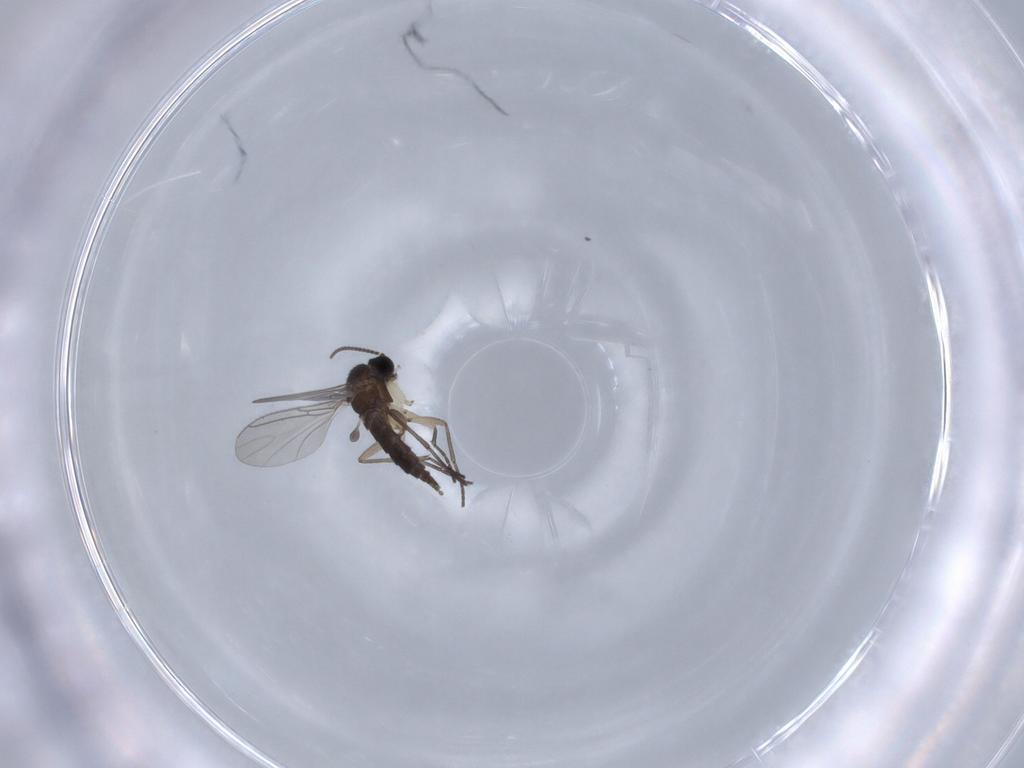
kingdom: Animalia
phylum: Arthropoda
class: Insecta
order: Diptera
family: Sciaridae
